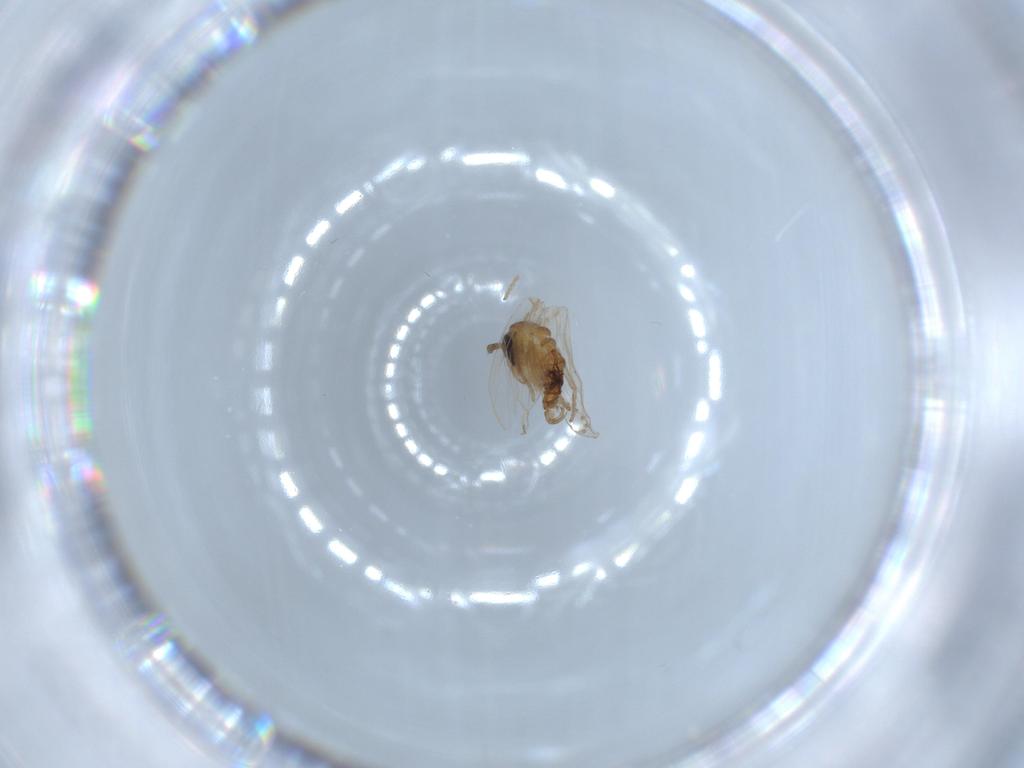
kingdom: Animalia
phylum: Arthropoda
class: Insecta
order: Diptera
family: Psychodidae
